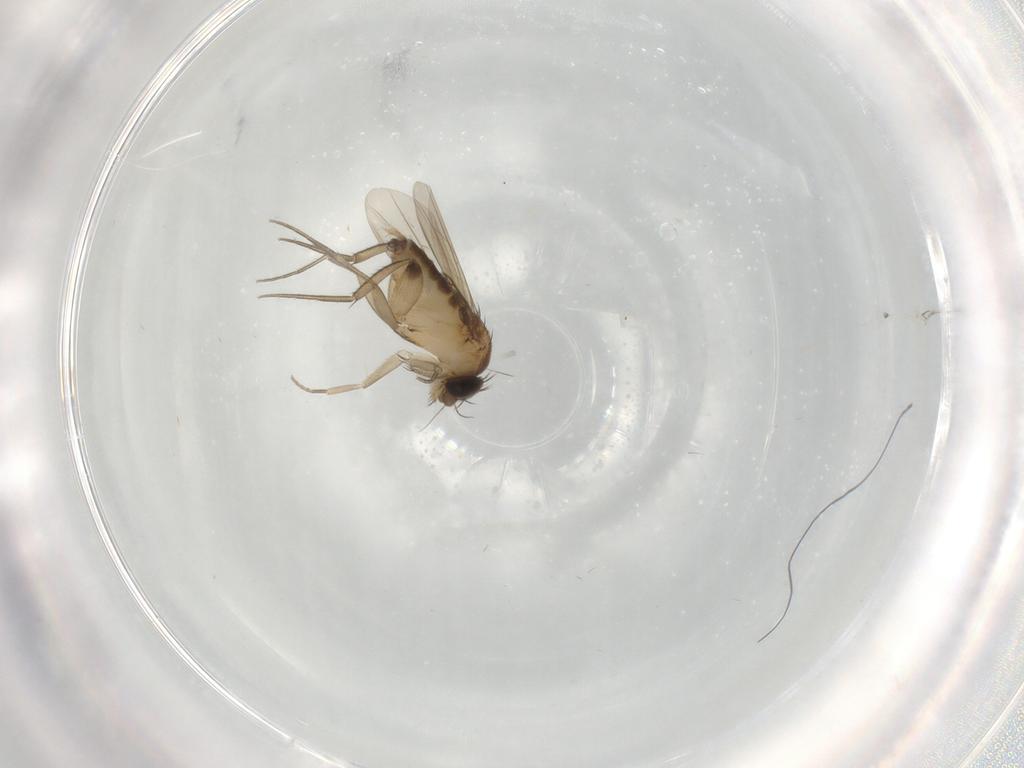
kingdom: Animalia
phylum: Arthropoda
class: Insecta
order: Diptera
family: Phoridae
